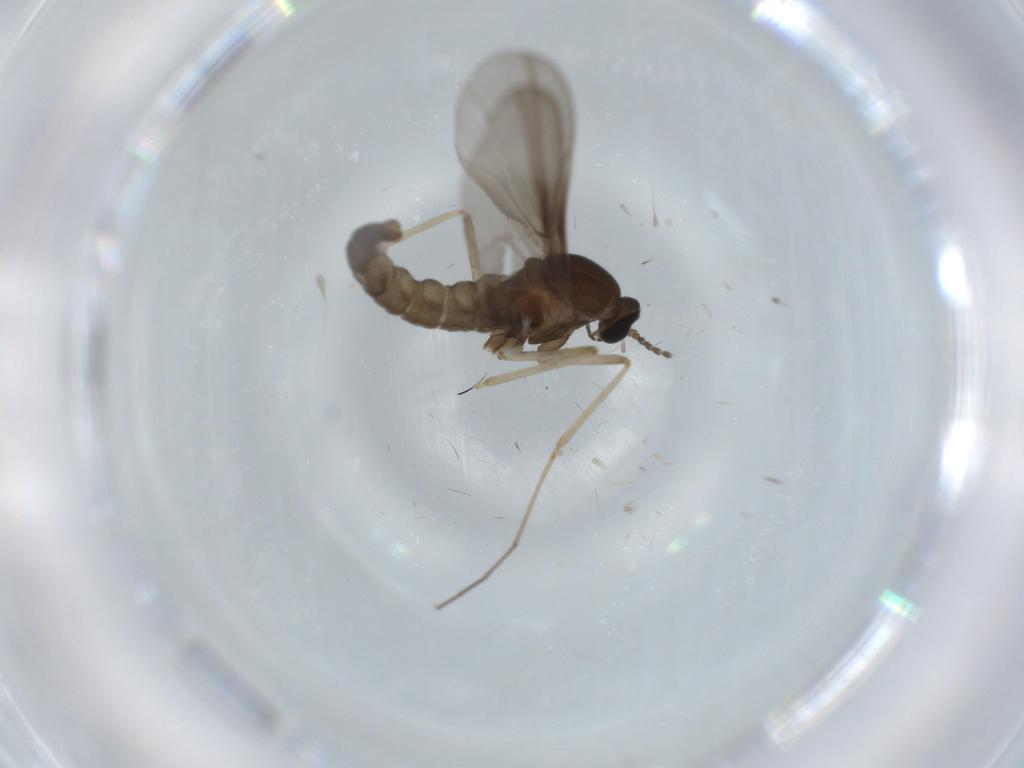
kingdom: Animalia
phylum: Arthropoda
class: Insecta
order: Diptera
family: Cecidomyiidae
